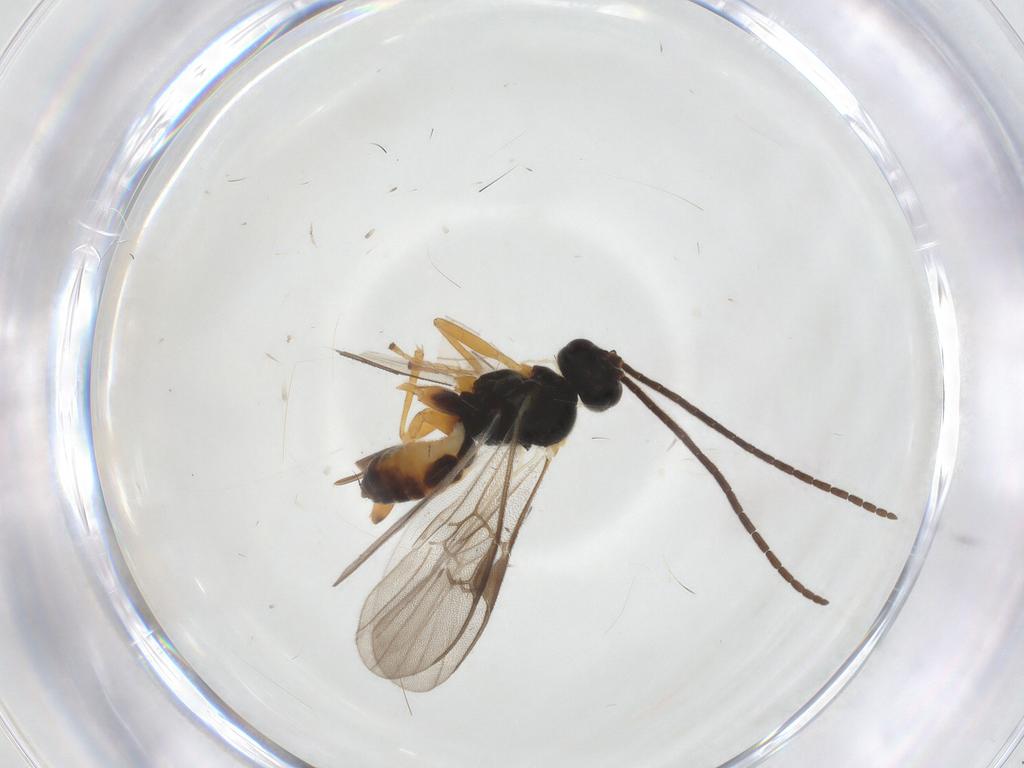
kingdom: Animalia
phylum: Arthropoda
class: Insecta
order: Hymenoptera
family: Braconidae
